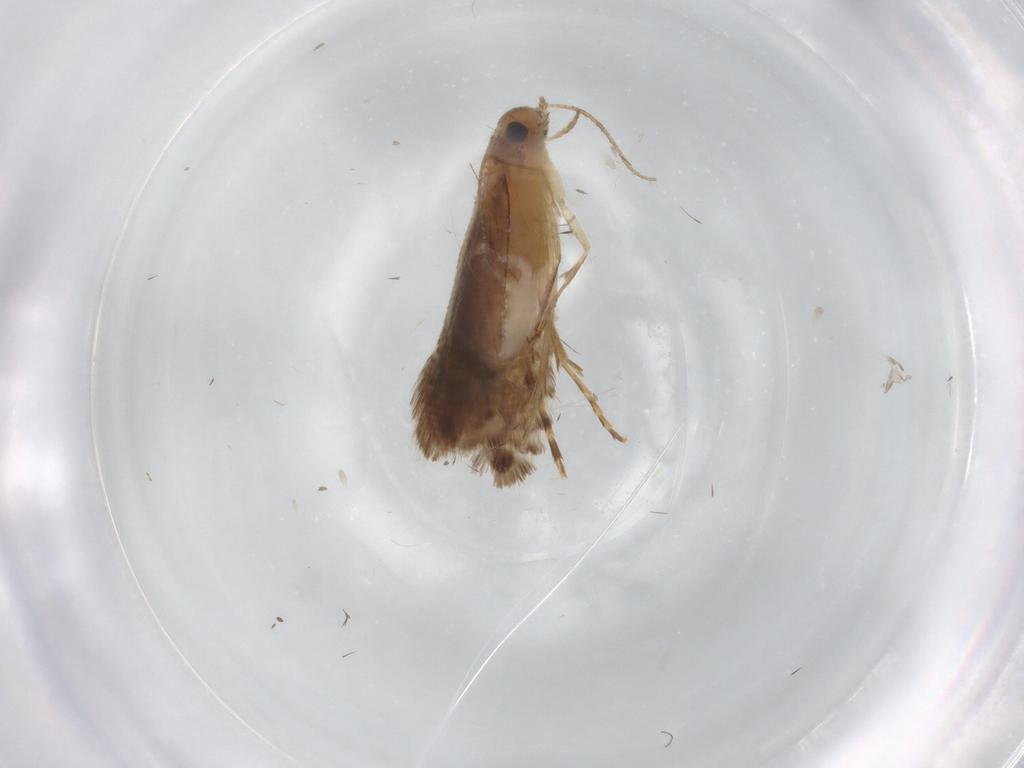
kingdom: Animalia
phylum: Arthropoda
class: Insecta
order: Lepidoptera
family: Glyphipterigidae
